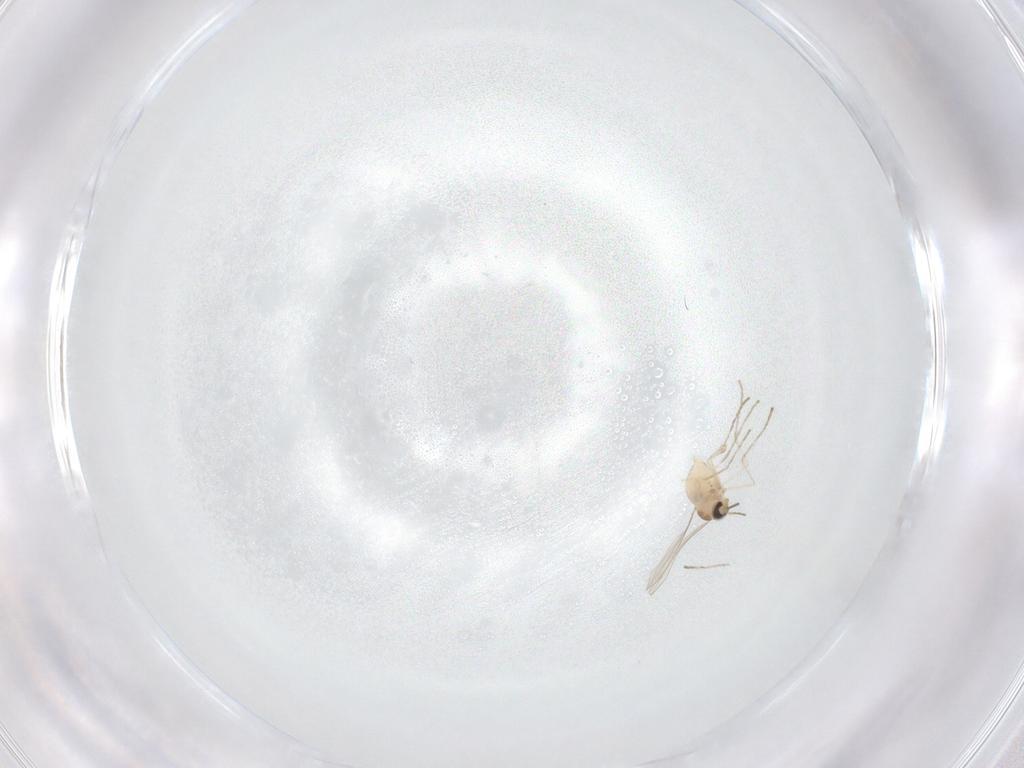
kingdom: Animalia
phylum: Arthropoda
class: Insecta
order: Diptera
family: Cecidomyiidae
